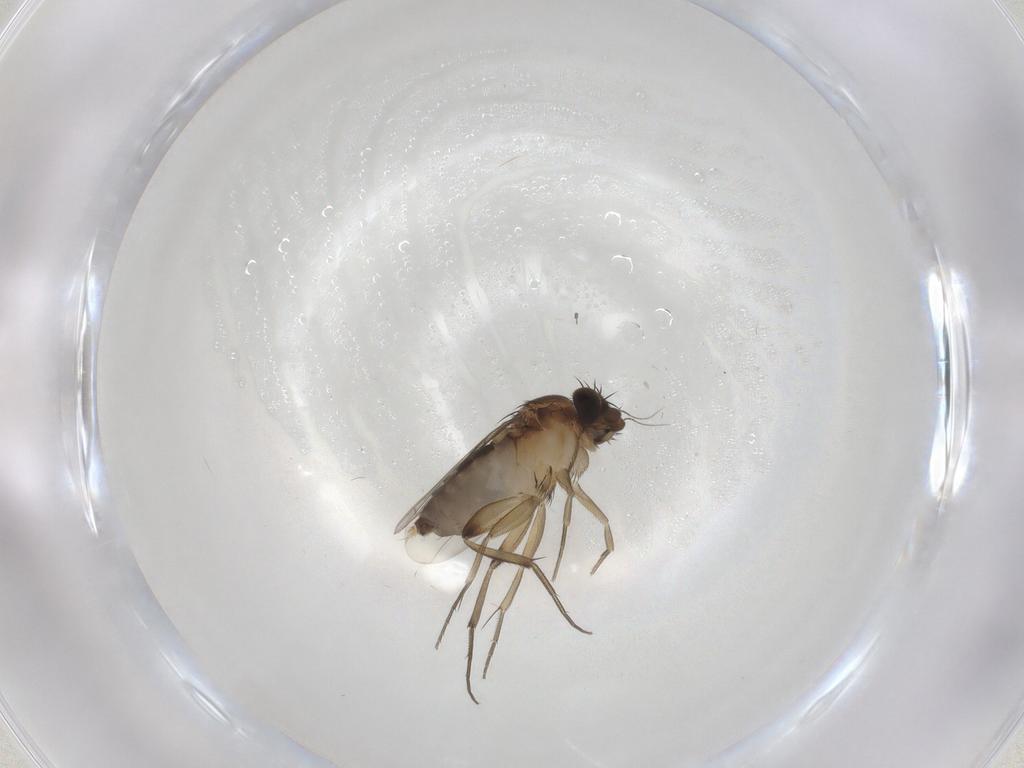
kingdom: Animalia
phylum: Arthropoda
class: Insecta
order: Diptera
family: Phoridae
